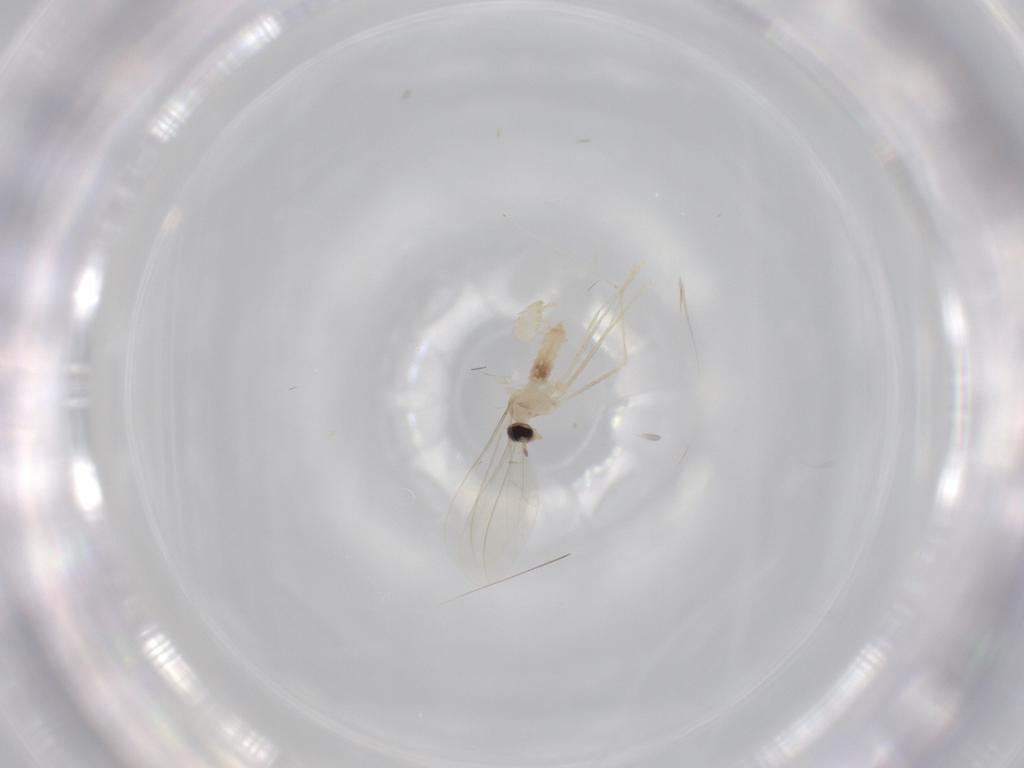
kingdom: Animalia
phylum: Arthropoda
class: Insecta
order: Diptera
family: Cecidomyiidae
